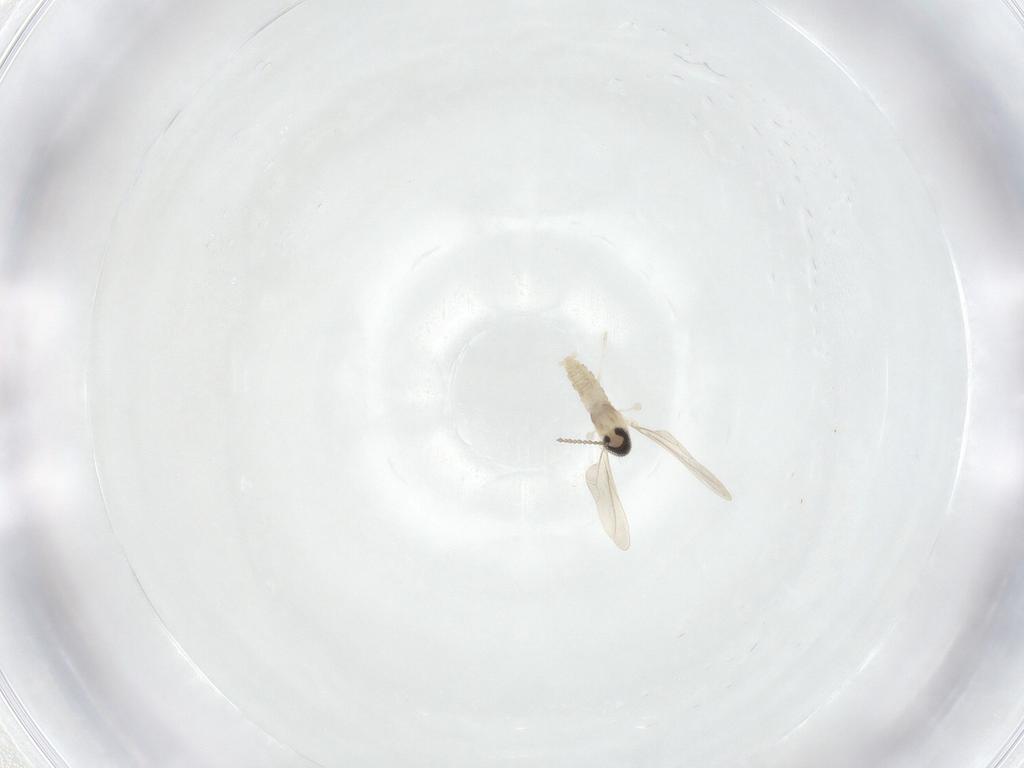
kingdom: Animalia
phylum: Arthropoda
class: Insecta
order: Diptera
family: Cecidomyiidae
